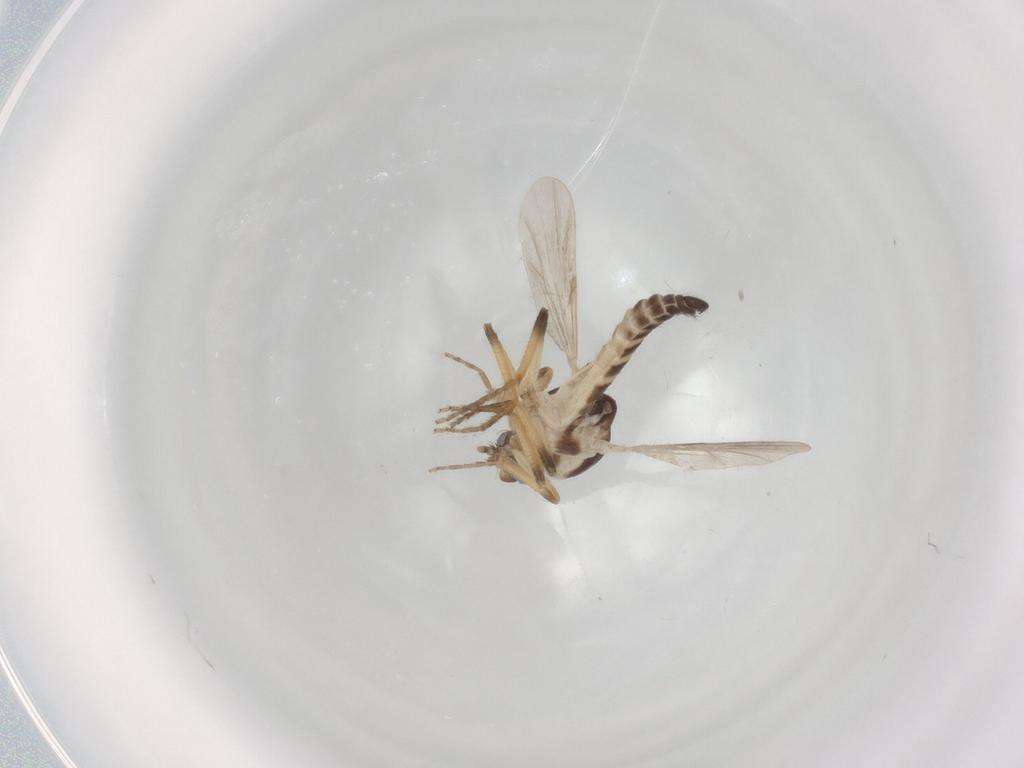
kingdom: Animalia
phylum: Arthropoda
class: Insecta
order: Diptera
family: Ceratopogonidae
